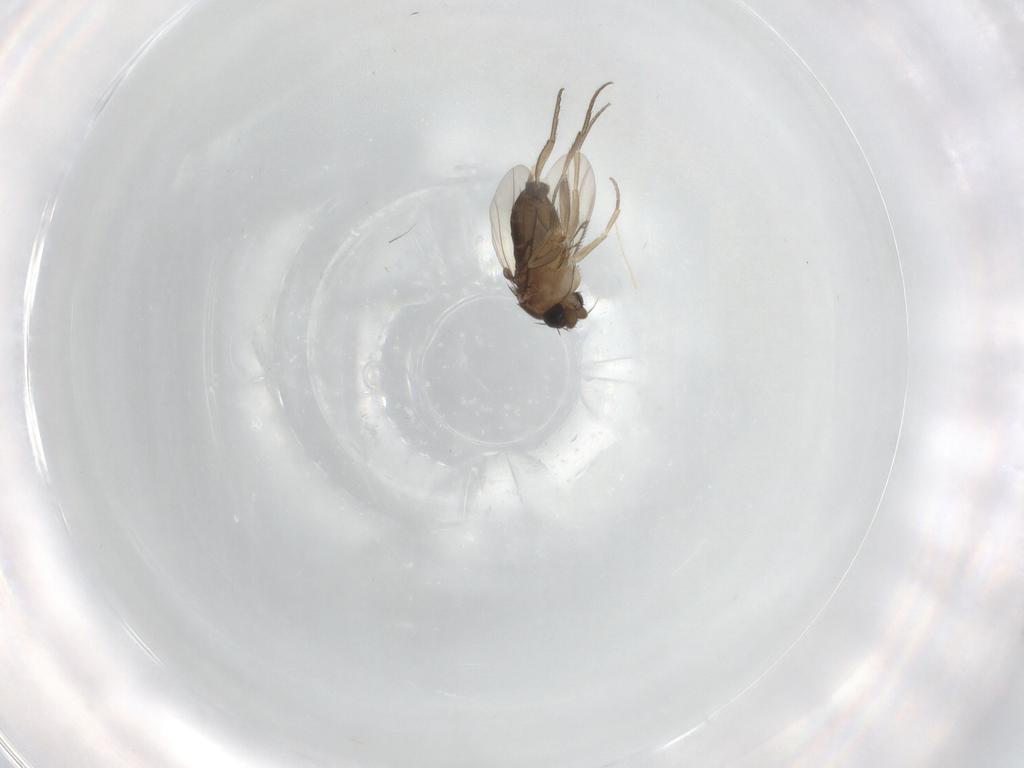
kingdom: Animalia
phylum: Arthropoda
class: Insecta
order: Diptera
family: Phoridae
